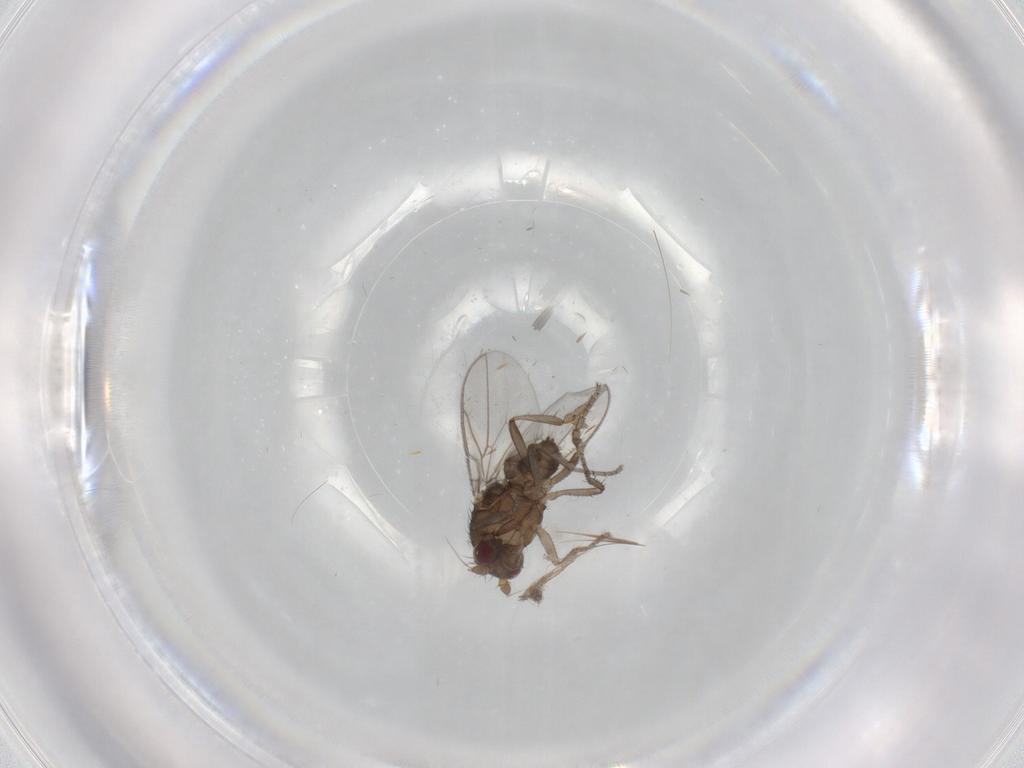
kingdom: Animalia
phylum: Arthropoda
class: Insecta
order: Diptera
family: Sphaeroceridae
